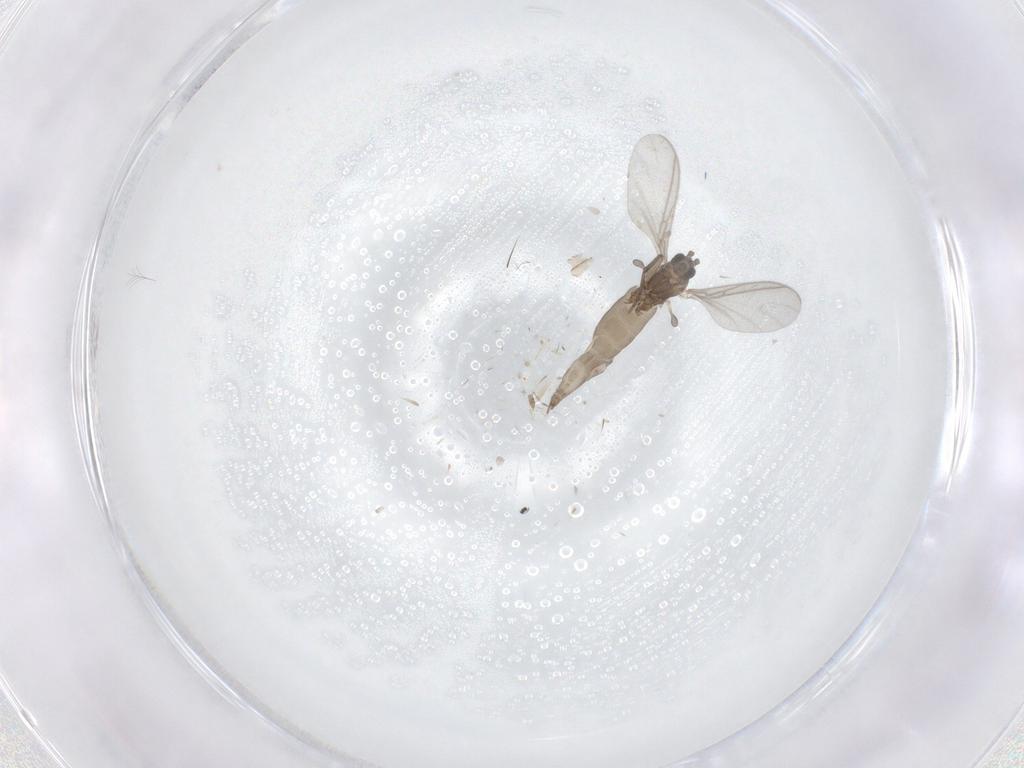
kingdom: Animalia
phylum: Arthropoda
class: Insecta
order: Diptera
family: Sciaridae
